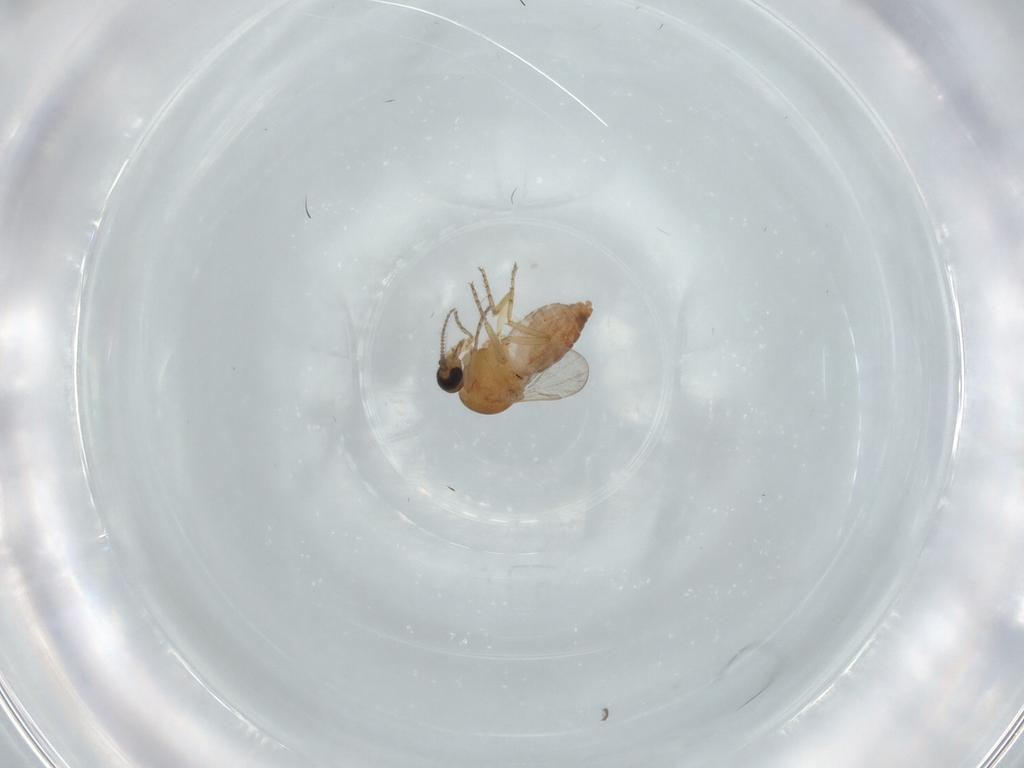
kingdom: Animalia
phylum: Arthropoda
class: Insecta
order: Diptera
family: Ceratopogonidae
